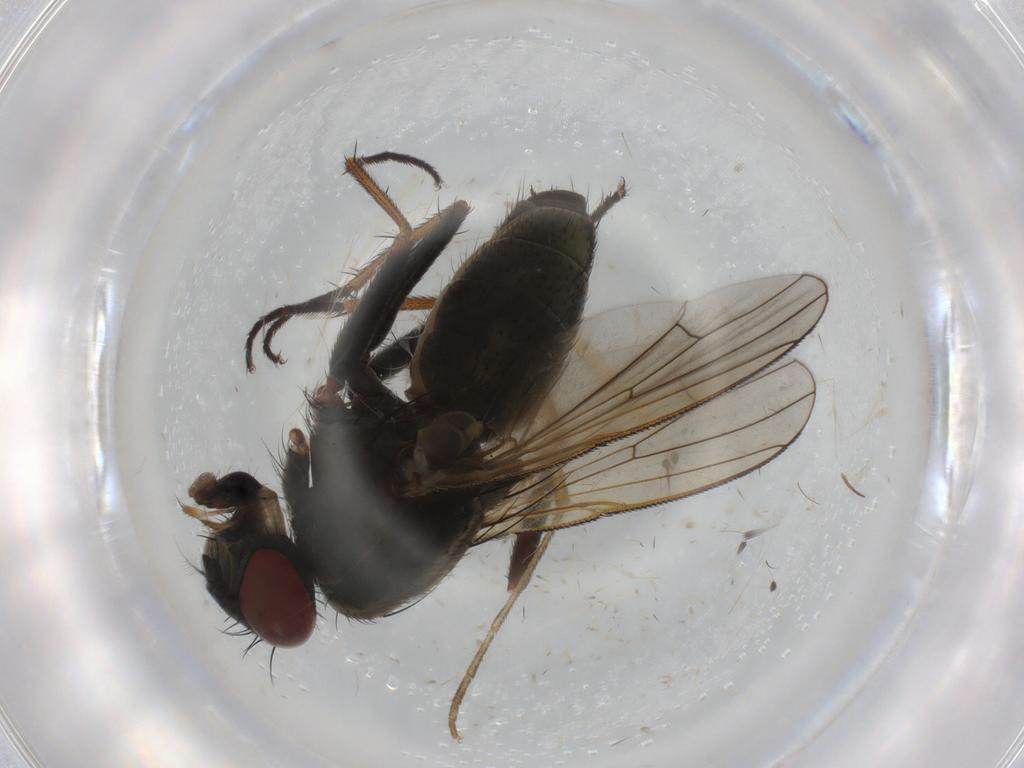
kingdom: Animalia
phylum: Arthropoda
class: Insecta
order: Diptera
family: Muscidae
